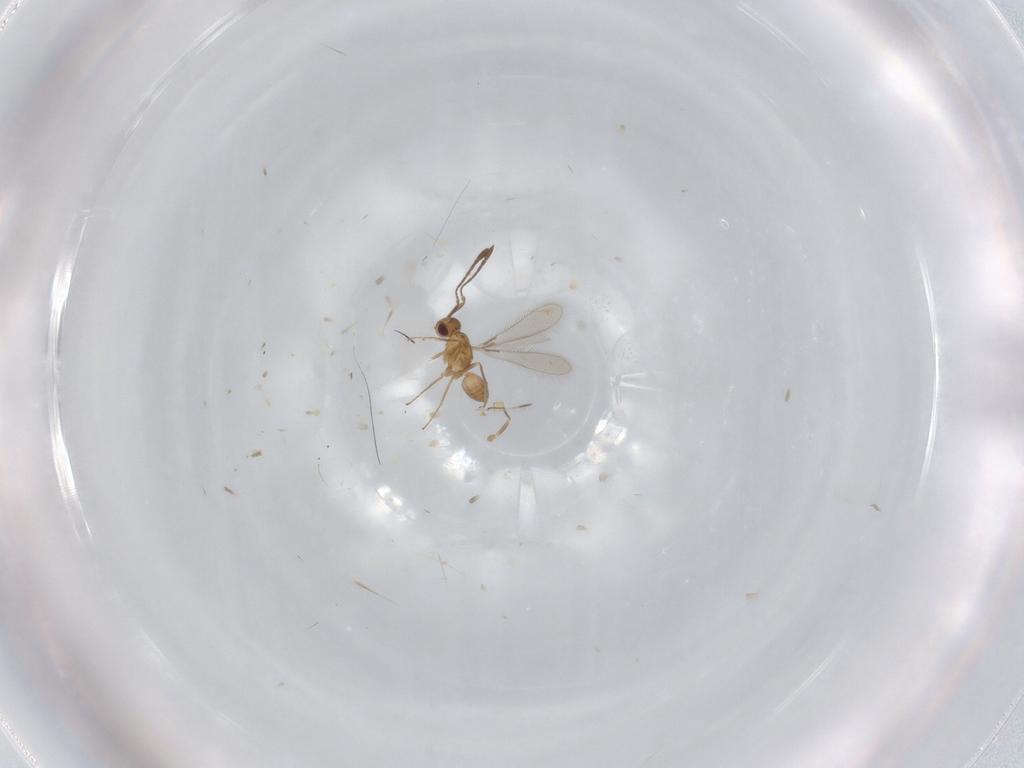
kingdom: Animalia
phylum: Arthropoda
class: Insecta
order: Hymenoptera
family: Mymaridae
